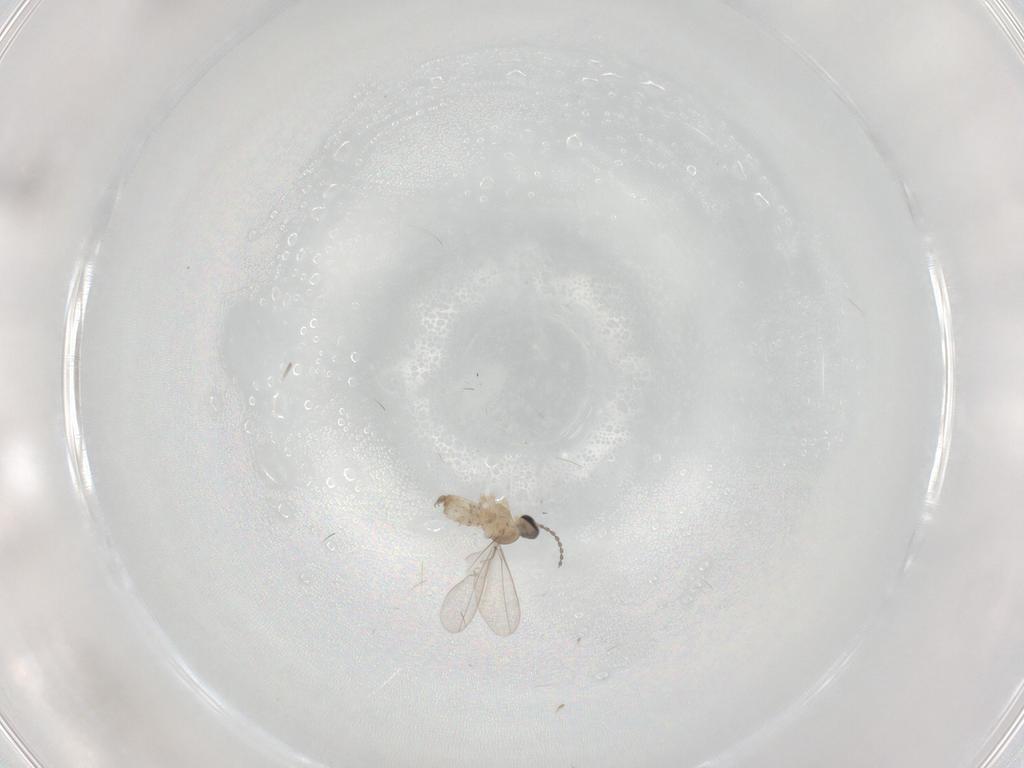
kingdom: Animalia
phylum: Arthropoda
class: Insecta
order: Diptera
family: Phoridae
